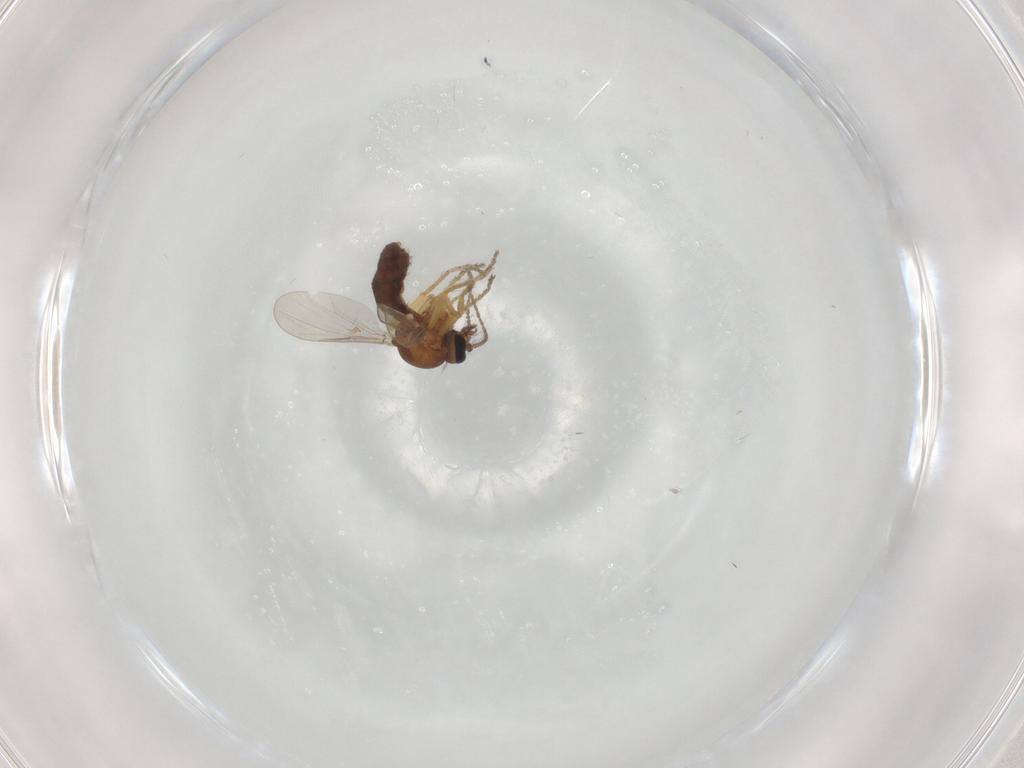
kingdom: Animalia
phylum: Arthropoda
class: Insecta
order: Diptera
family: Ceratopogonidae
